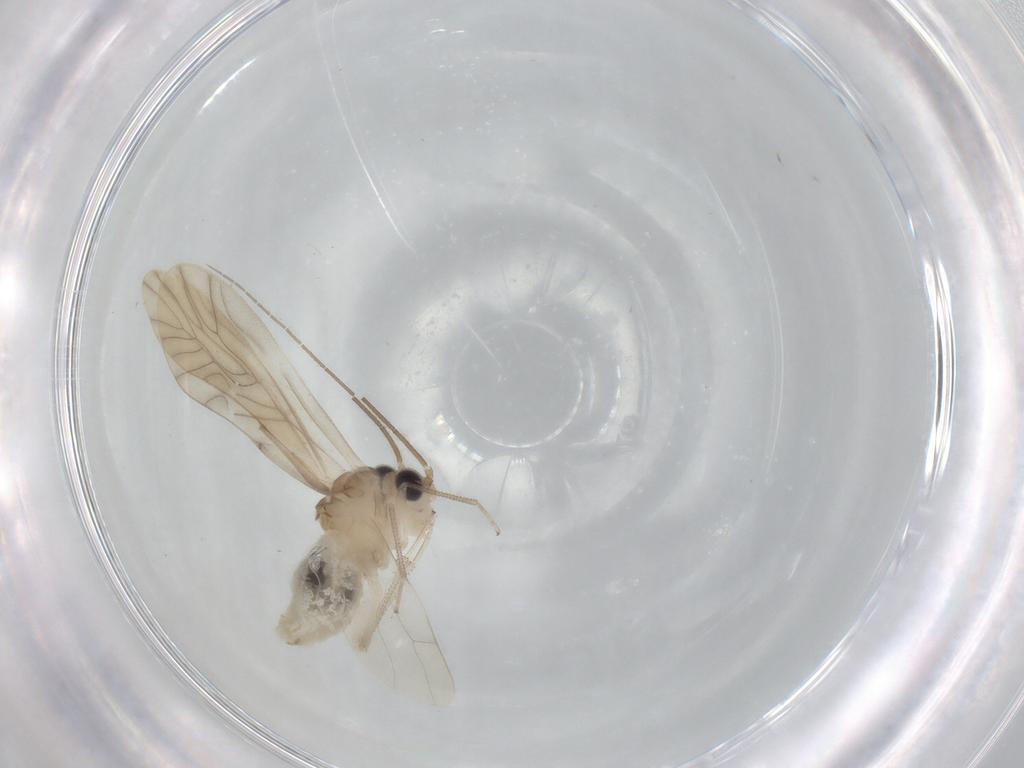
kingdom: Animalia
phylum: Arthropoda
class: Insecta
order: Psocodea
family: Caeciliusidae
